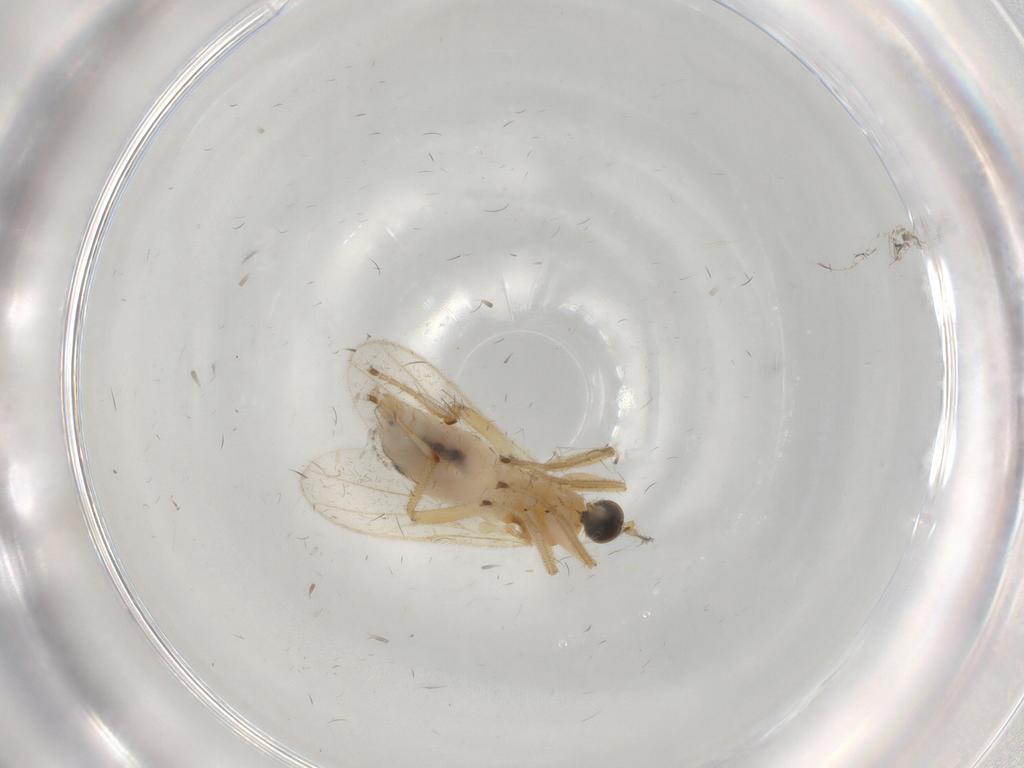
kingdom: Animalia
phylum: Arthropoda
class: Insecta
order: Diptera
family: Hybotidae
